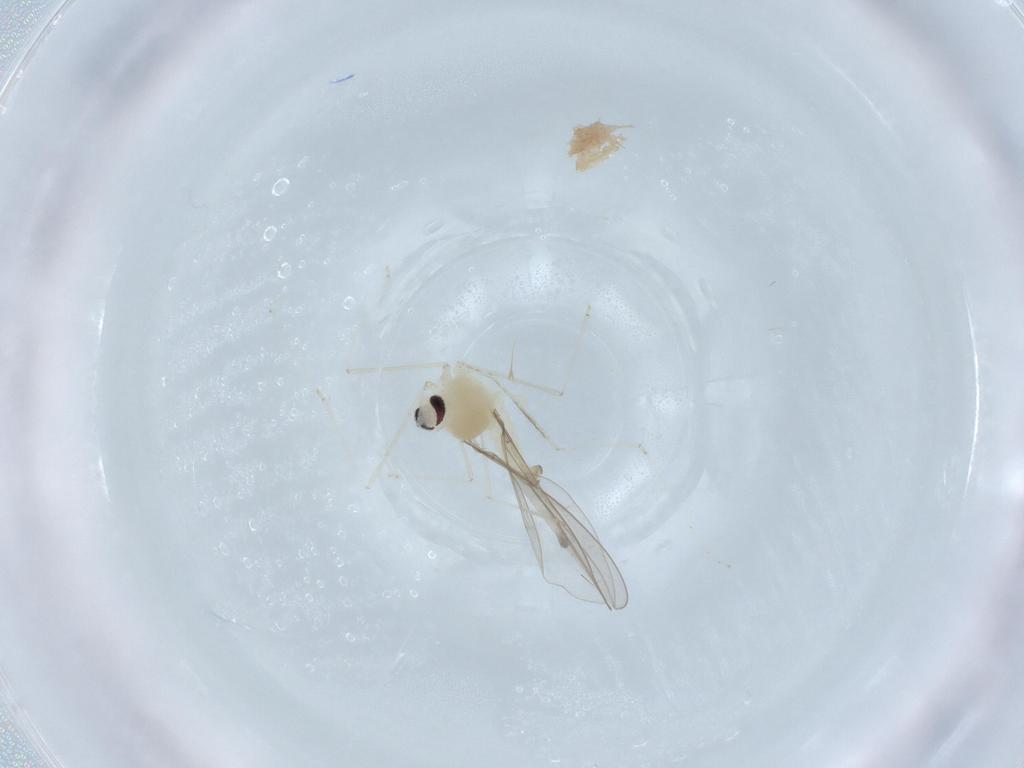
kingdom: Animalia
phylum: Arthropoda
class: Insecta
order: Diptera
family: Cecidomyiidae
